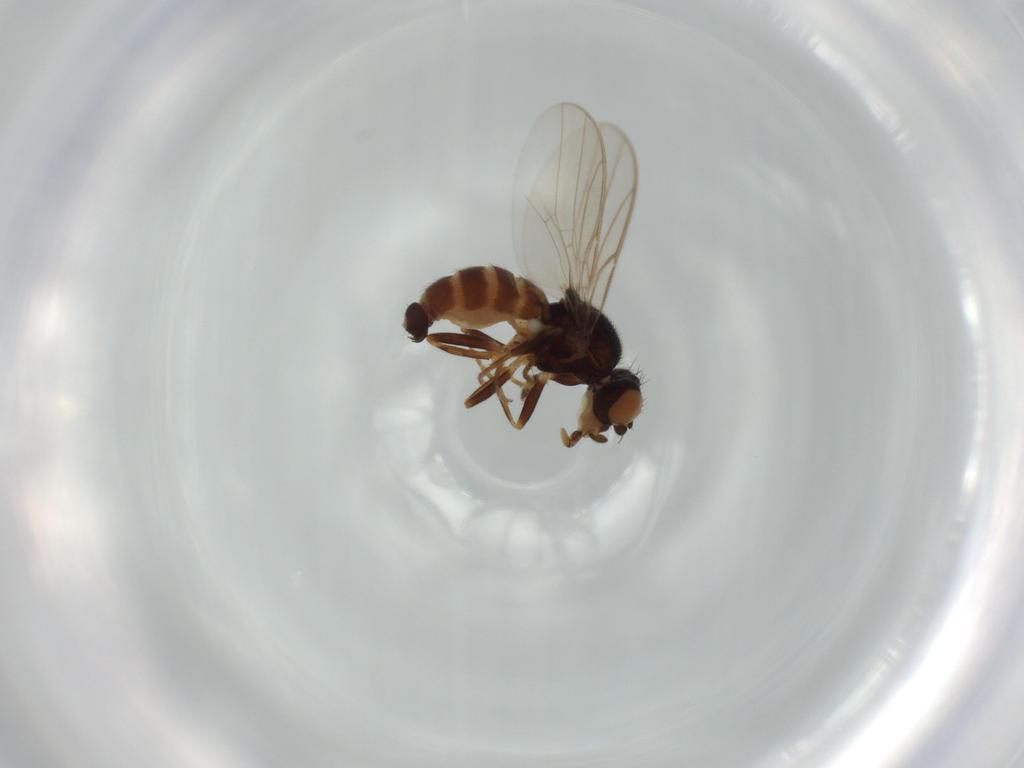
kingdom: Animalia
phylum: Arthropoda
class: Insecta
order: Diptera
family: Chloropidae
